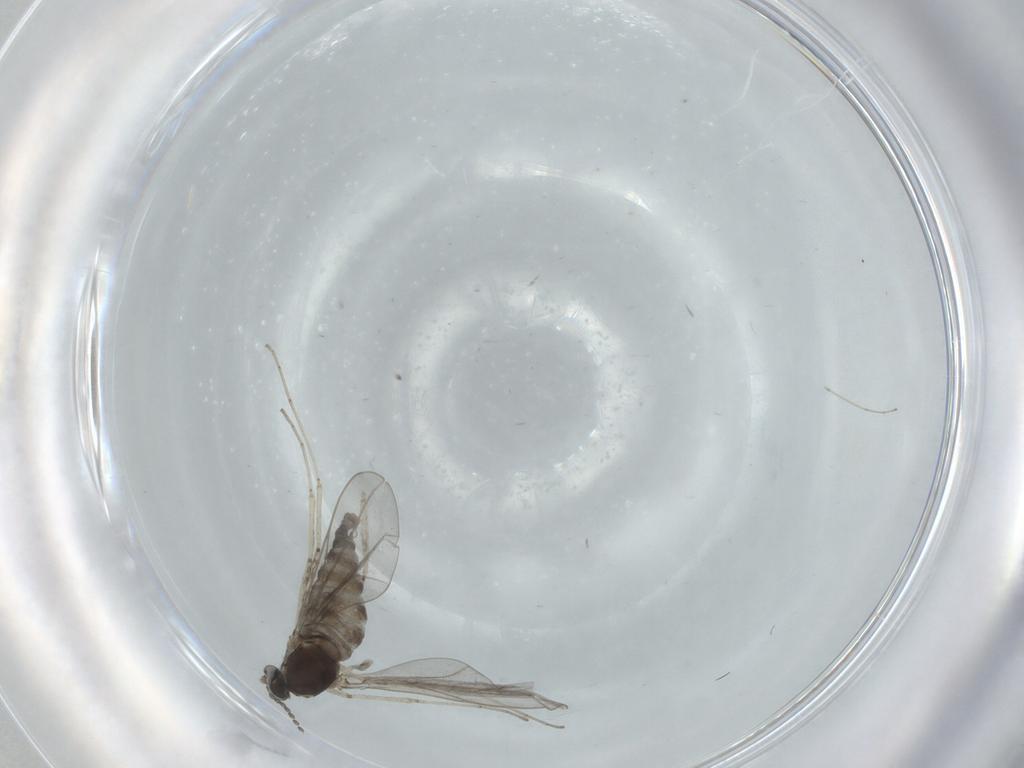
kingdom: Animalia
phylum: Arthropoda
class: Insecta
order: Diptera
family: Cecidomyiidae
